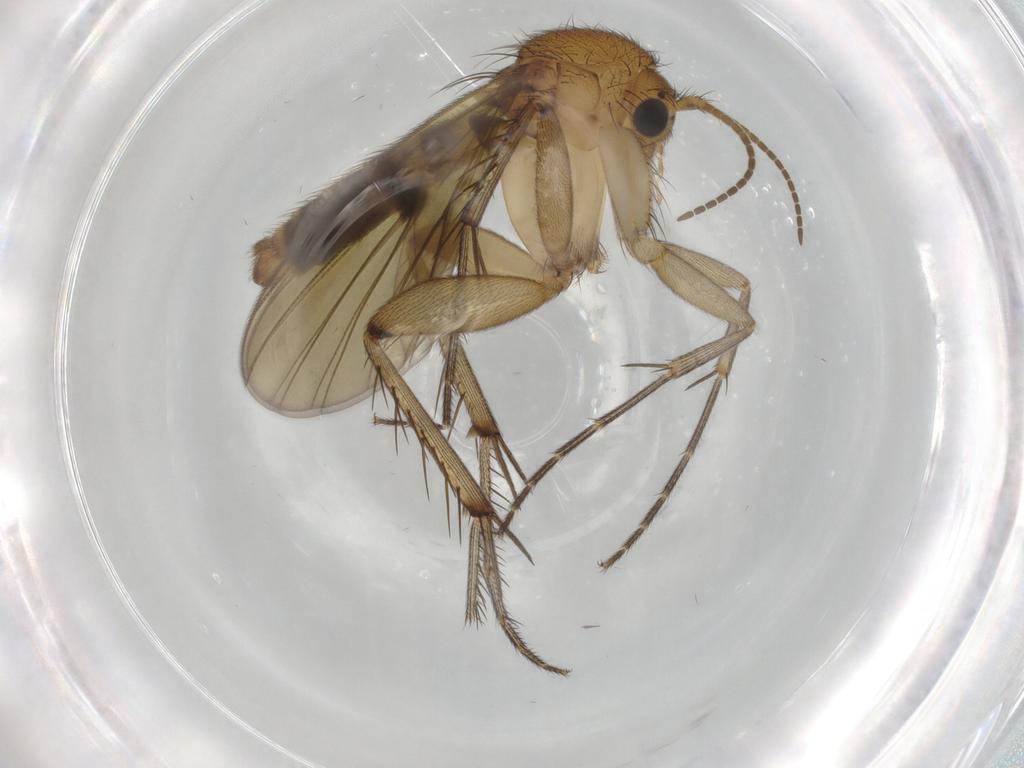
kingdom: Animalia
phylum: Arthropoda
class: Insecta
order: Diptera
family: Mycetophilidae
